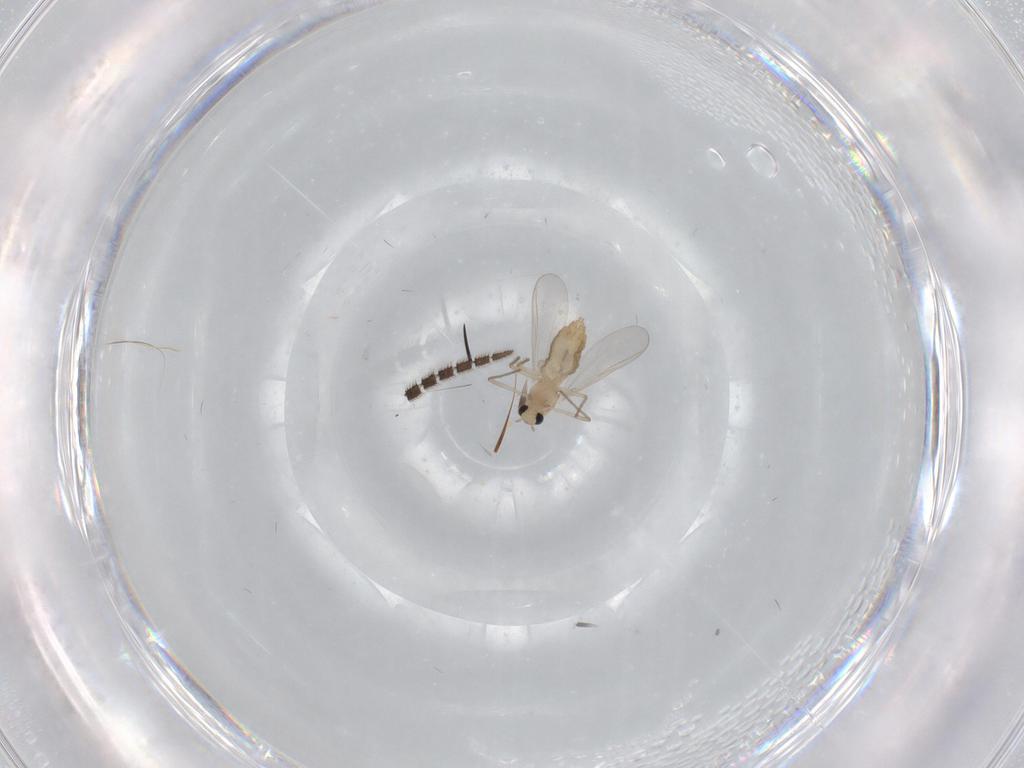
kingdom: Animalia
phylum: Arthropoda
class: Insecta
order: Diptera
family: Chironomidae
